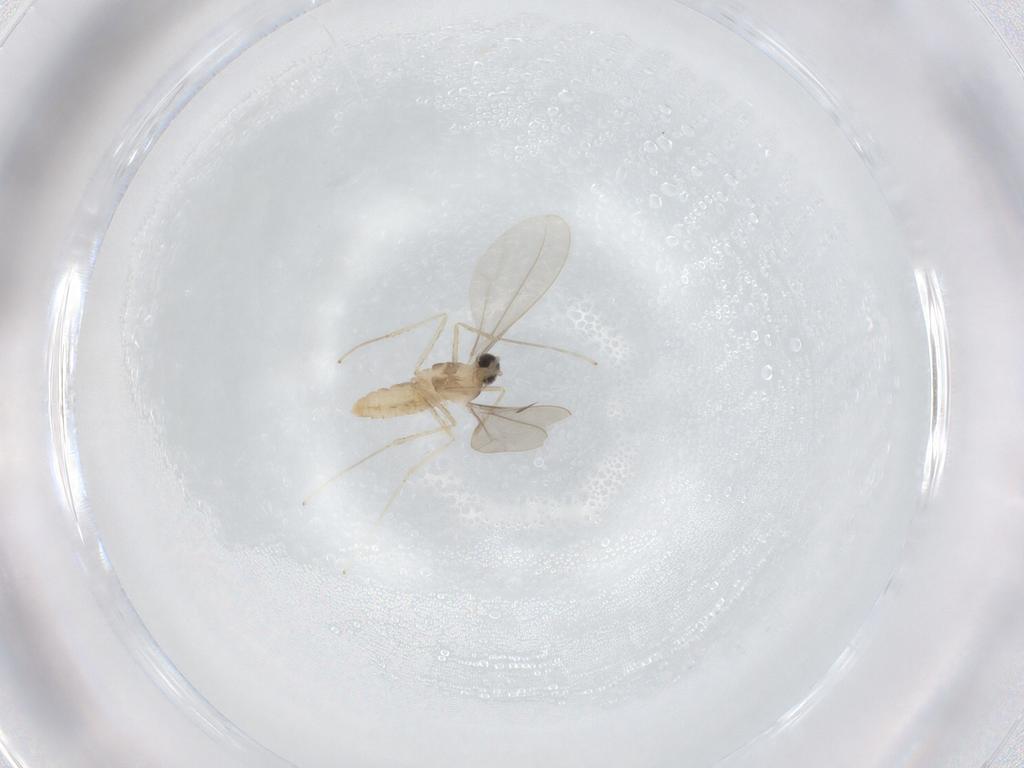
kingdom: Animalia
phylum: Arthropoda
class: Insecta
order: Diptera
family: Cecidomyiidae
